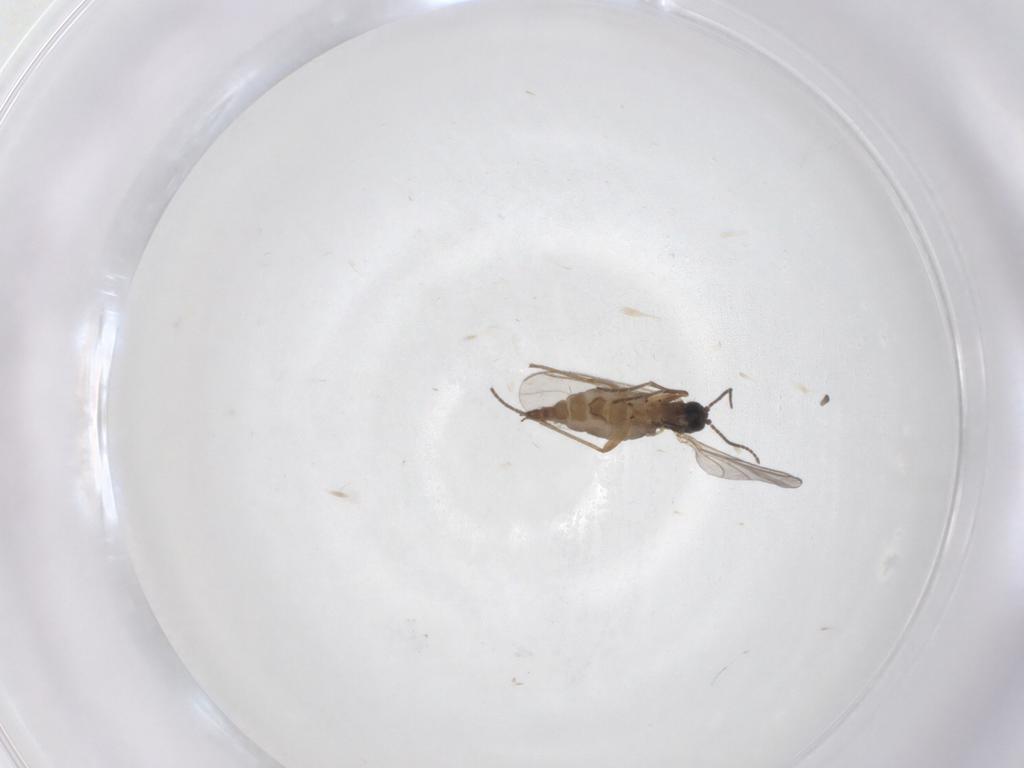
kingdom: Animalia
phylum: Arthropoda
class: Insecta
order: Diptera
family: Sciaridae
